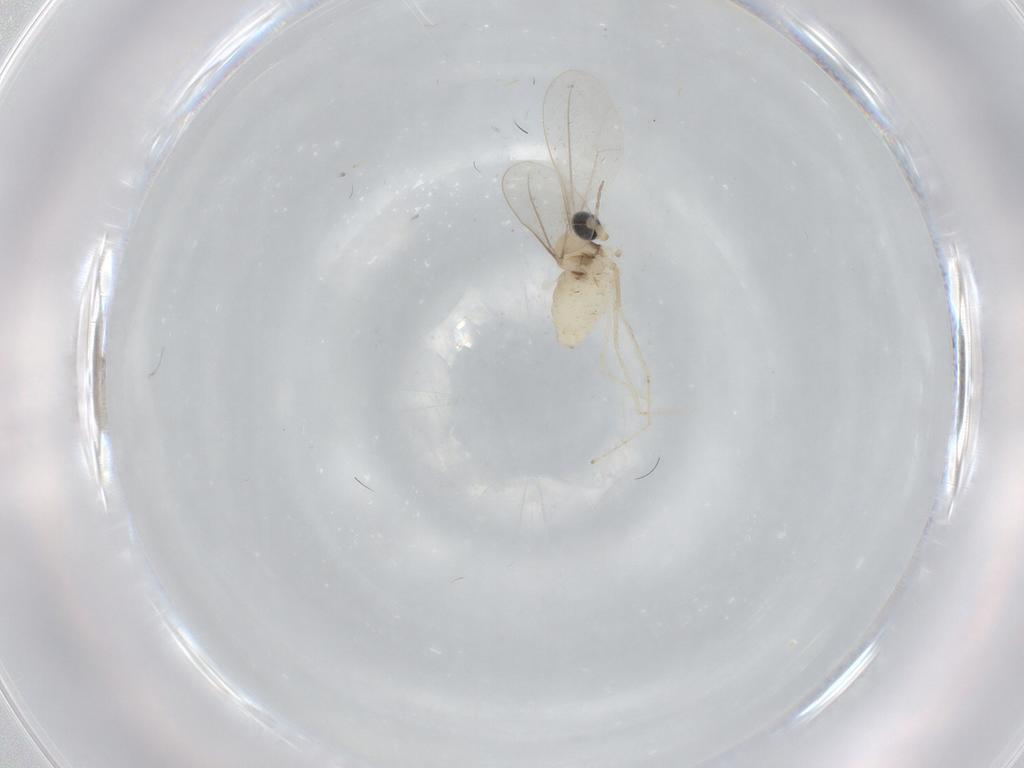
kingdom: Animalia
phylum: Arthropoda
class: Insecta
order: Diptera
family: Cecidomyiidae
